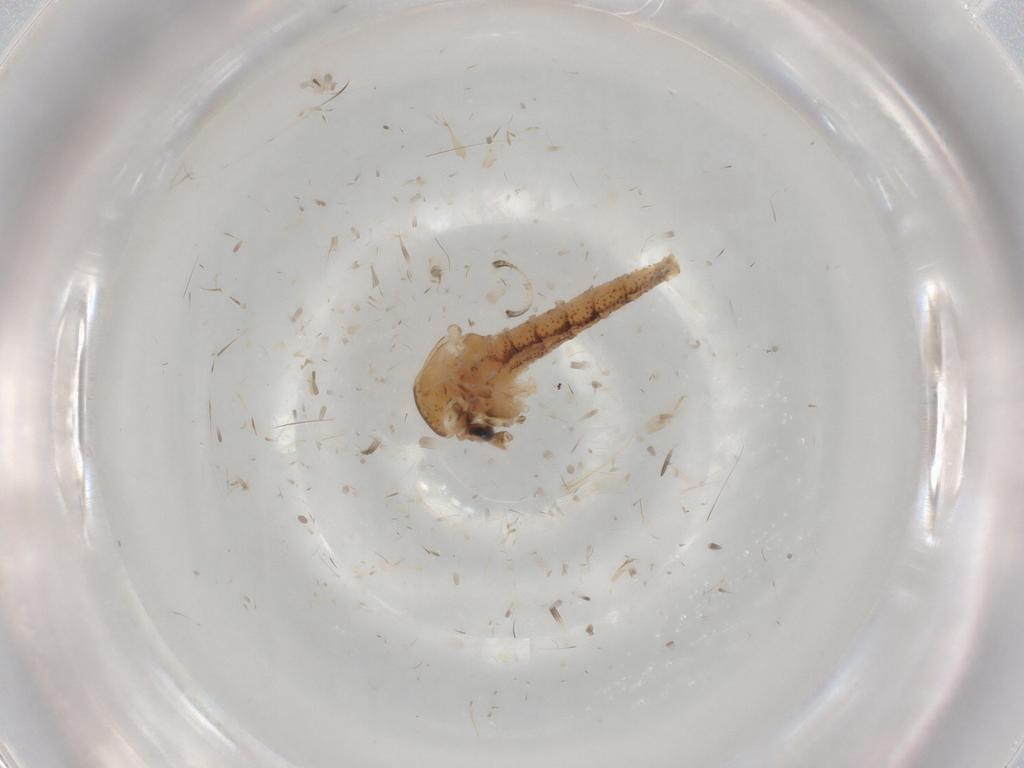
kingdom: Animalia
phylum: Arthropoda
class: Insecta
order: Diptera
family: Chaoboridae
